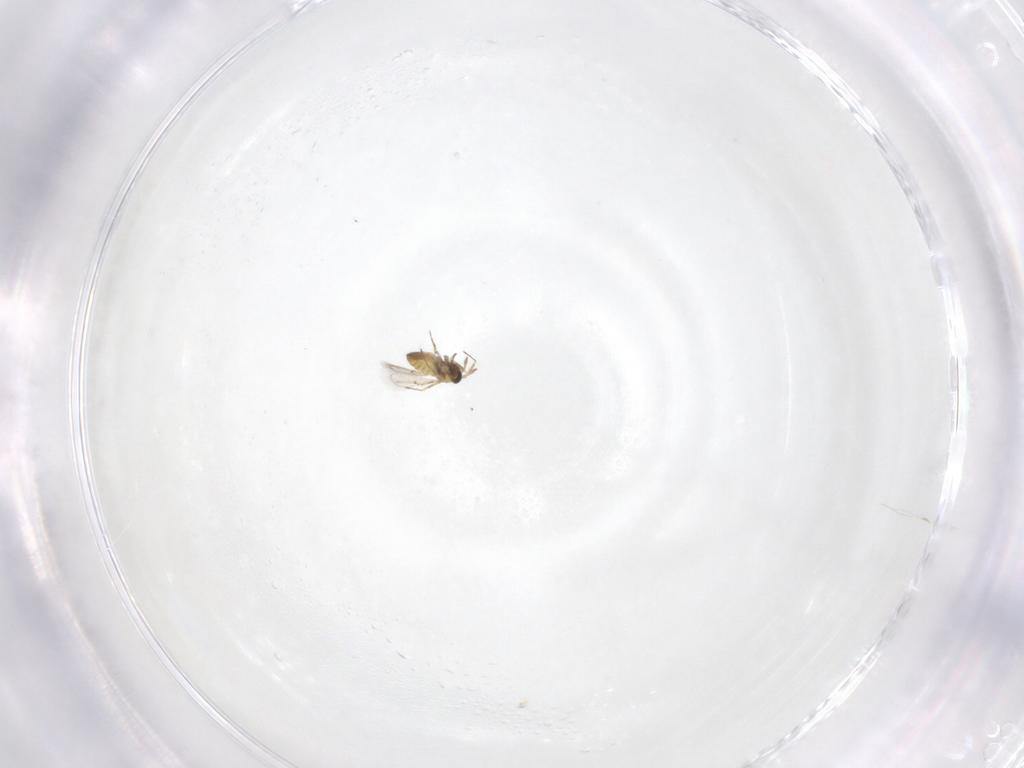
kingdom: Animalia
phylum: Arthropoda
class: Insecta
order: Hymenoptera
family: Trichogrammatidae
